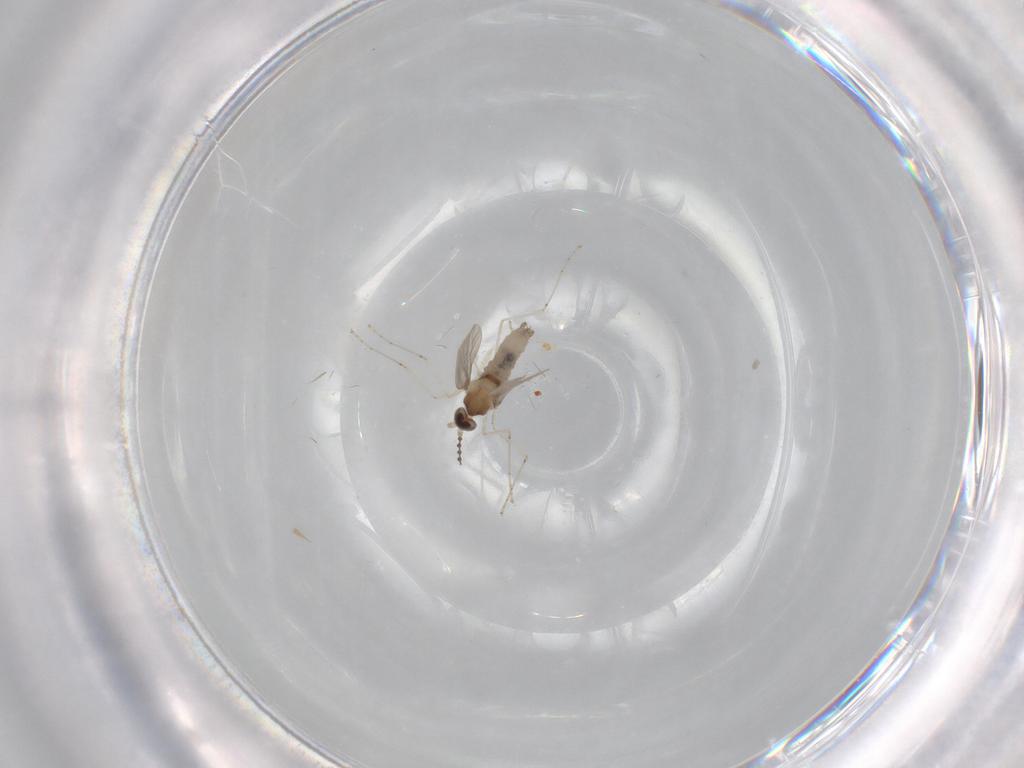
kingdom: Animalia
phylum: Arthropoda
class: Insecta
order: Diptera
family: Cecidomyiidae
